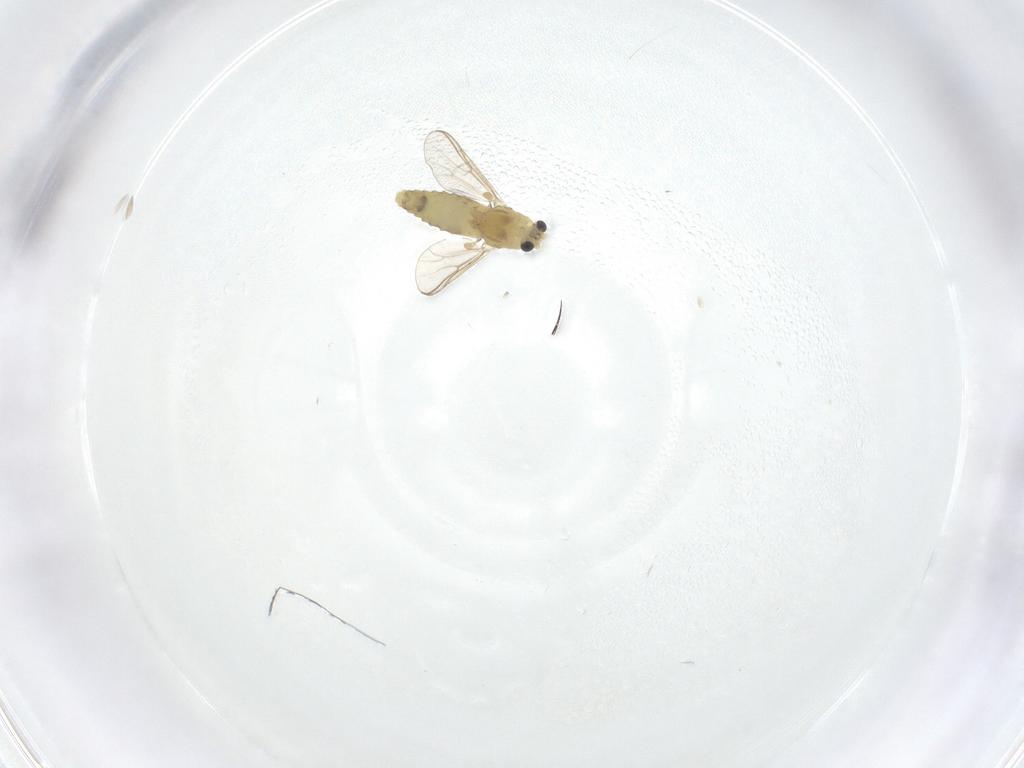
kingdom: Animalia
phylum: Arthropoda
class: Insecta
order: Diptera
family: Chironomidae
